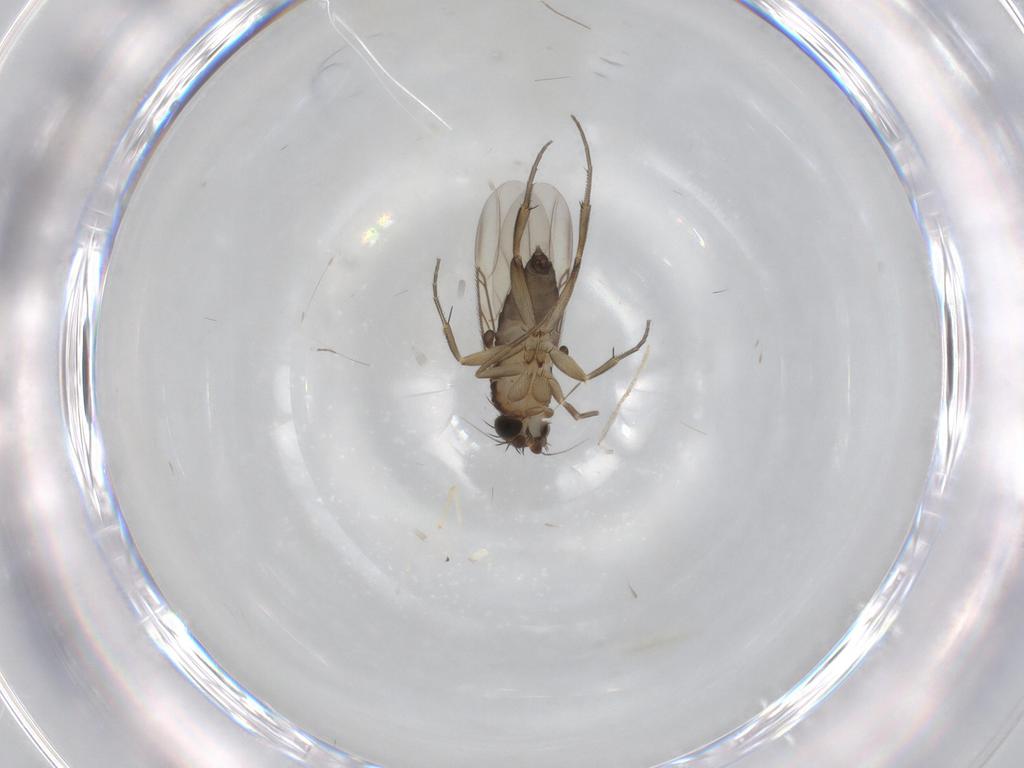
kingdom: Animalia
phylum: Arthropoda
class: Insecta
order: Diptera
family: Phoridae
